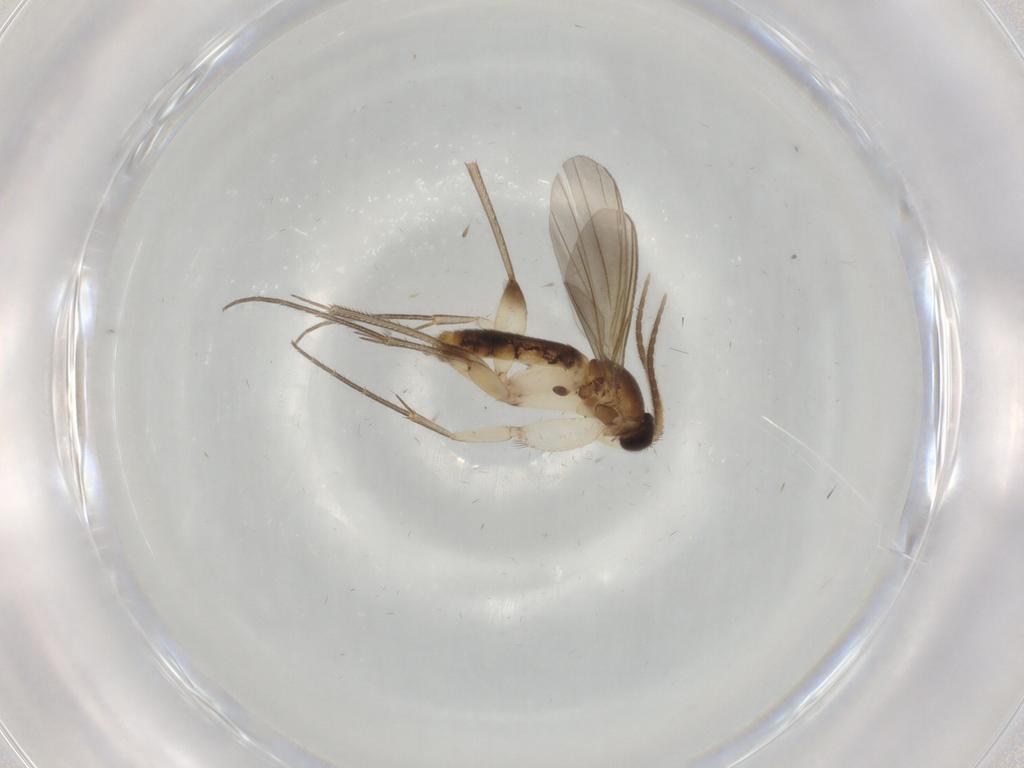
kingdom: Animalia
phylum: Arthropoda
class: Insecta
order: Diptera
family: Mycetophilidae
